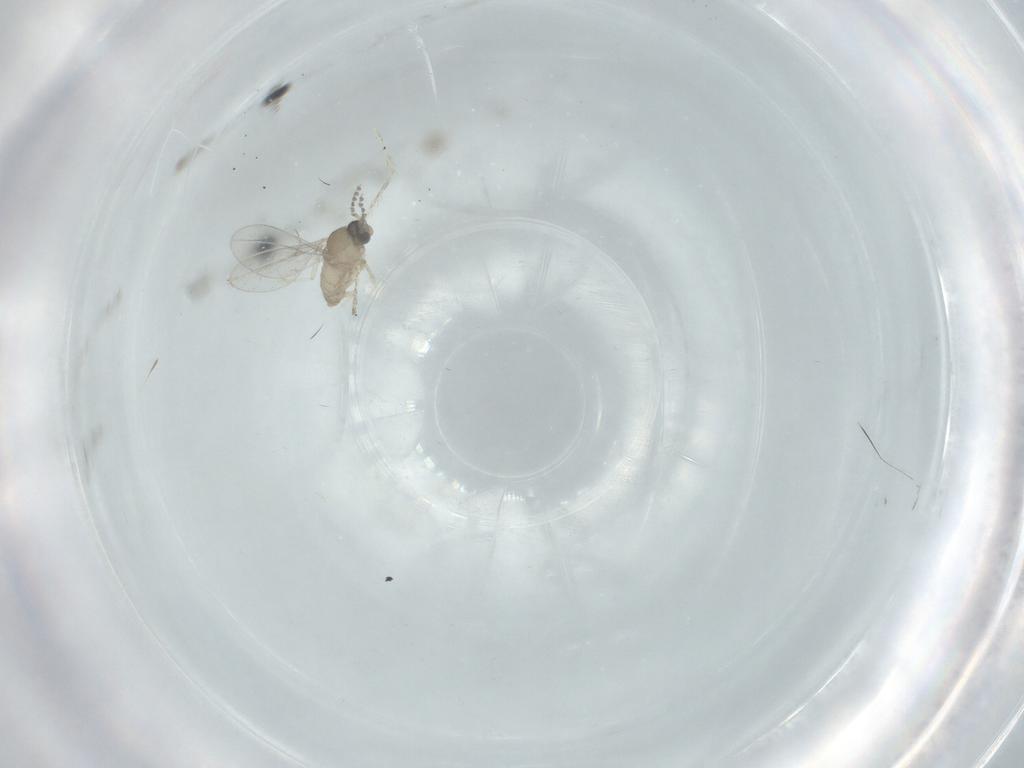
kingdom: Animalia
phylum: Arthropoda
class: Insecta
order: Diptera
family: Cecidomyiidae
